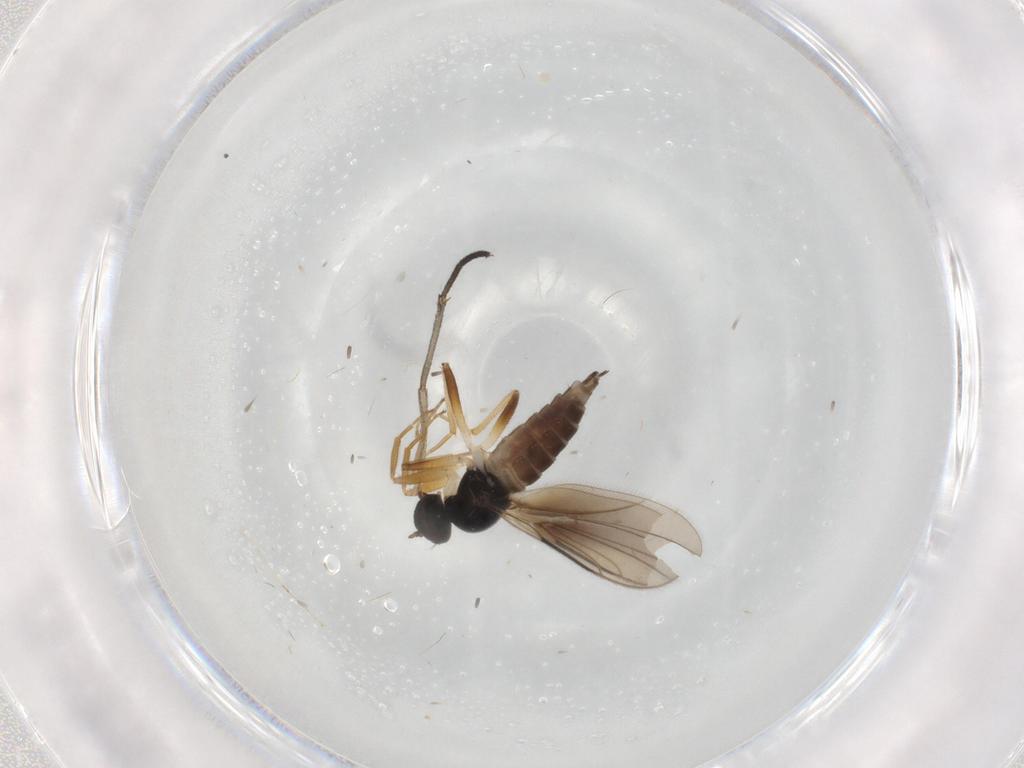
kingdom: Animalia
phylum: Arthropoda
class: Insecta
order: Diptera
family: Hybotidae
